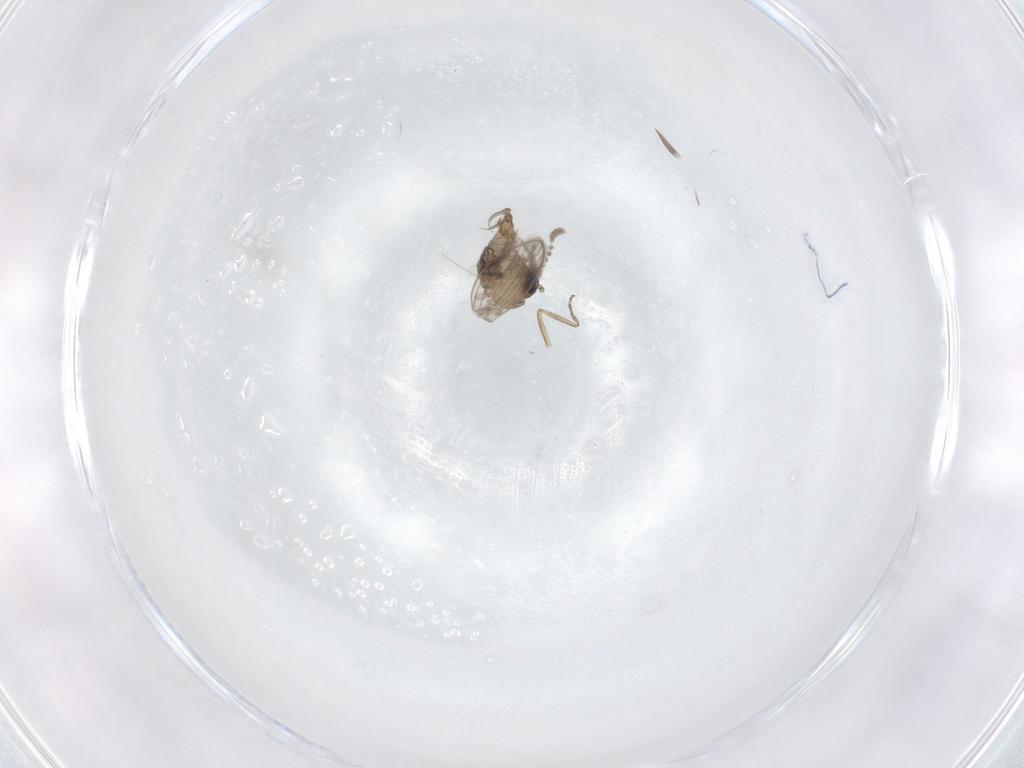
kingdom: Animalia
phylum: Arthropoda
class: Insecta
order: Diptera
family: Psychodidae
